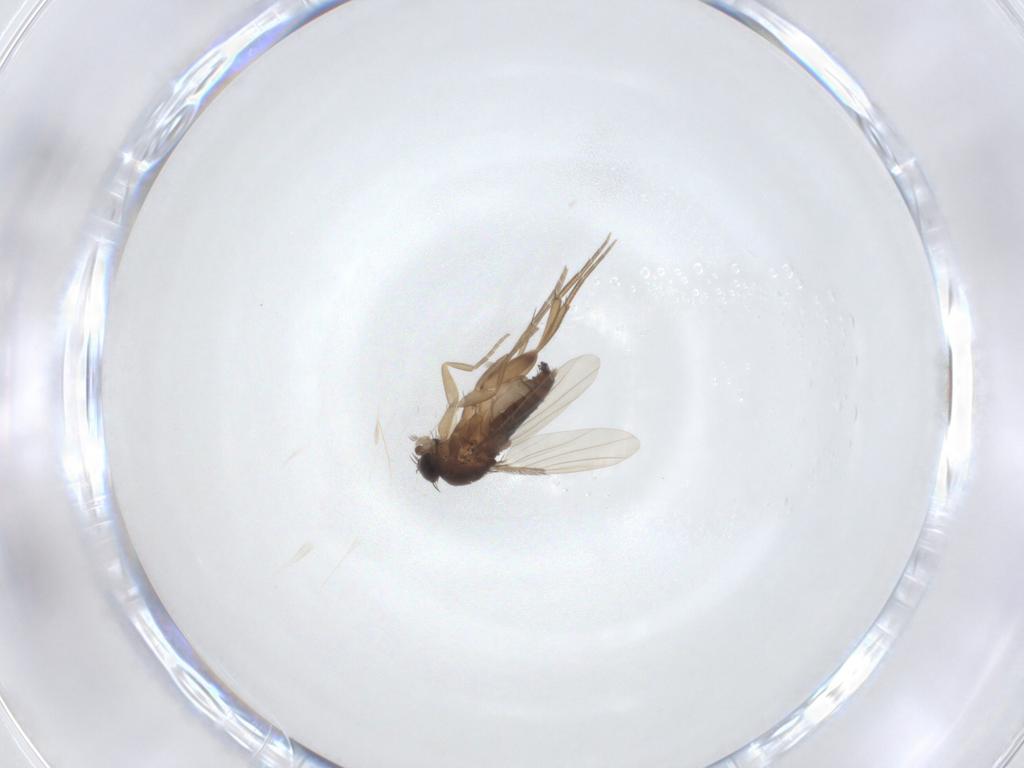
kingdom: Animalia
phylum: Arthropoda
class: Insecta
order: Diptera
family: Phoridae
